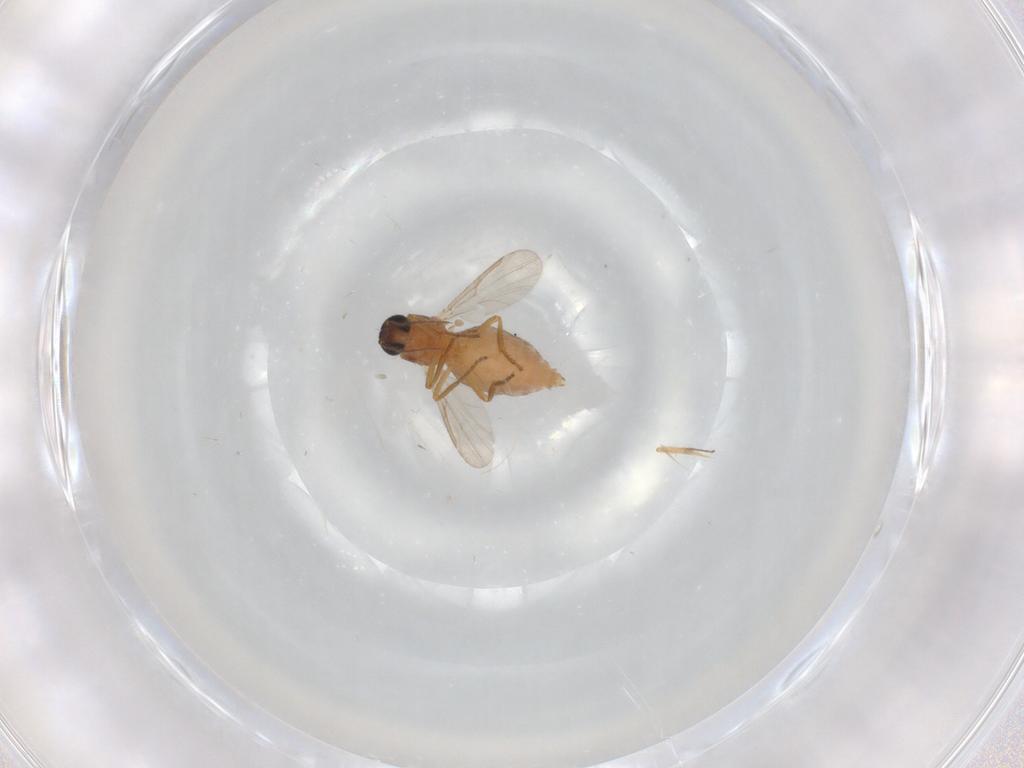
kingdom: Animalia
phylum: Arthropoda
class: Insecta
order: Diptera
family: Ceratopogonidae
